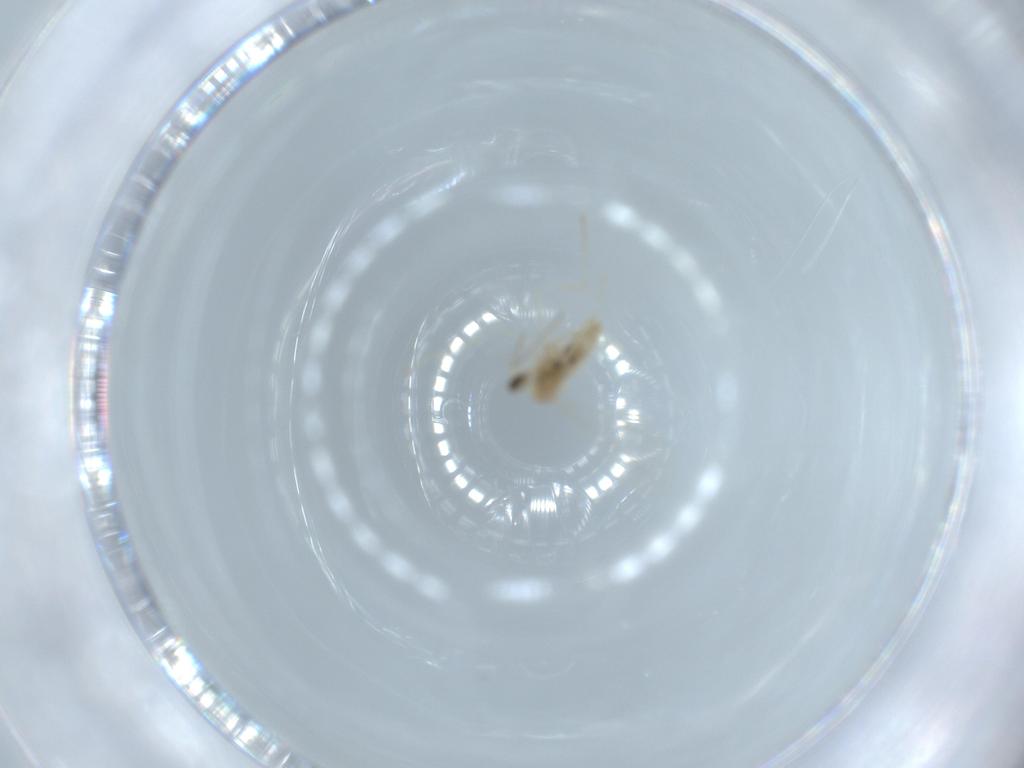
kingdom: Animalia
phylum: Arthropoda
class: Insecta
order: Diptera
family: Cecidomyiidae
